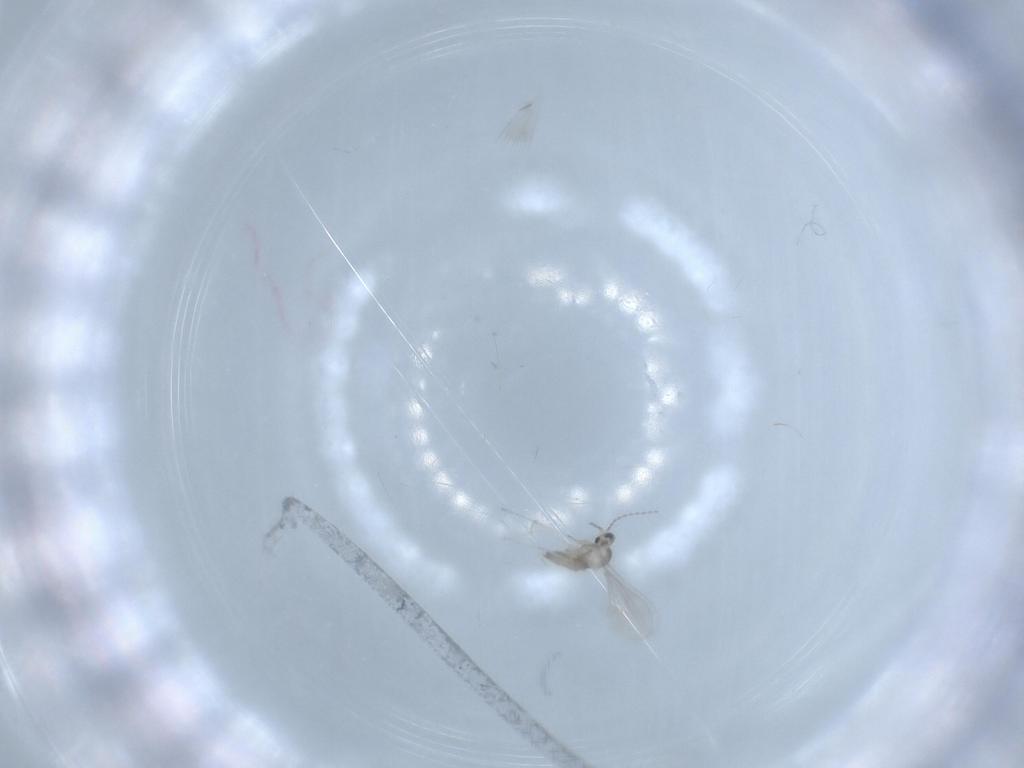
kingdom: Animalia
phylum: Arthropoda
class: Insecta
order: Diptera
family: Cecidomyiidae
